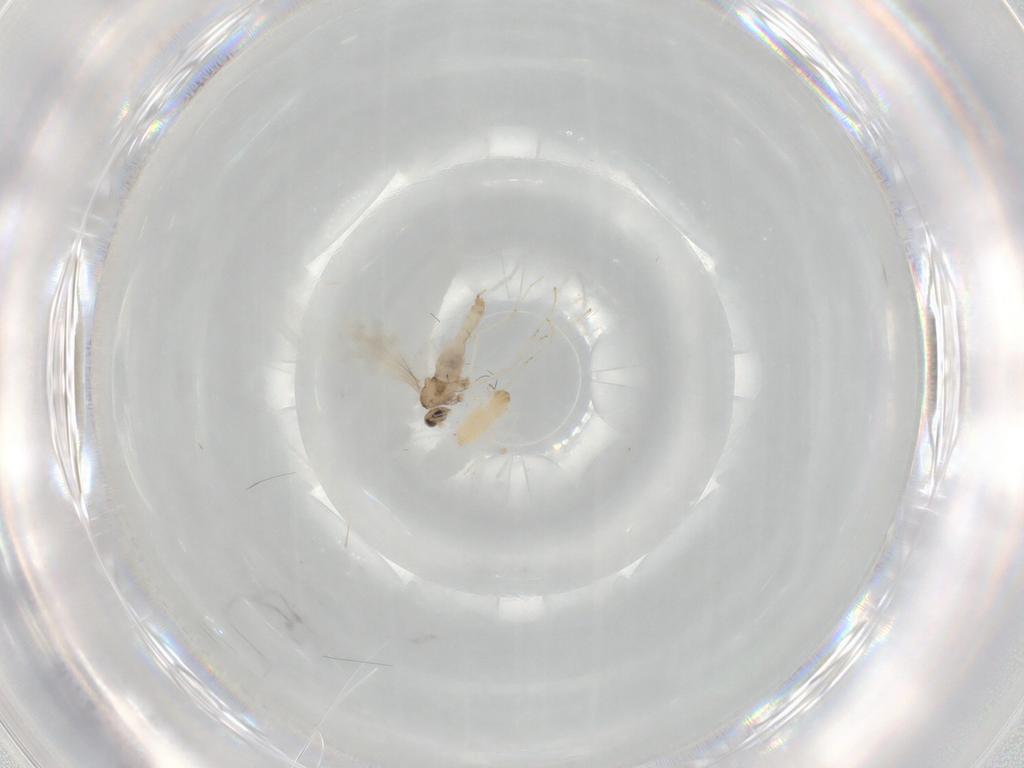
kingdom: Animalia
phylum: Arthropoda
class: Insecta
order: Diptera
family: Cecidomyiidae
